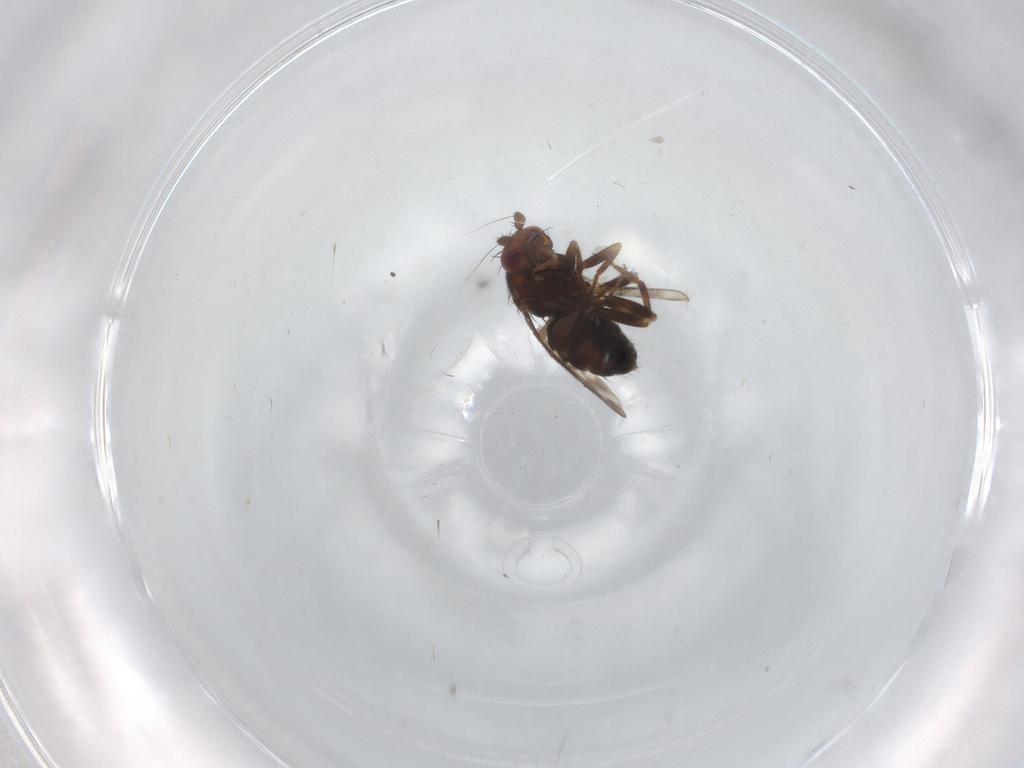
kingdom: Animalia
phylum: Arthropoda
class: Insecta
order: Diptera
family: Sphaeroceridae
